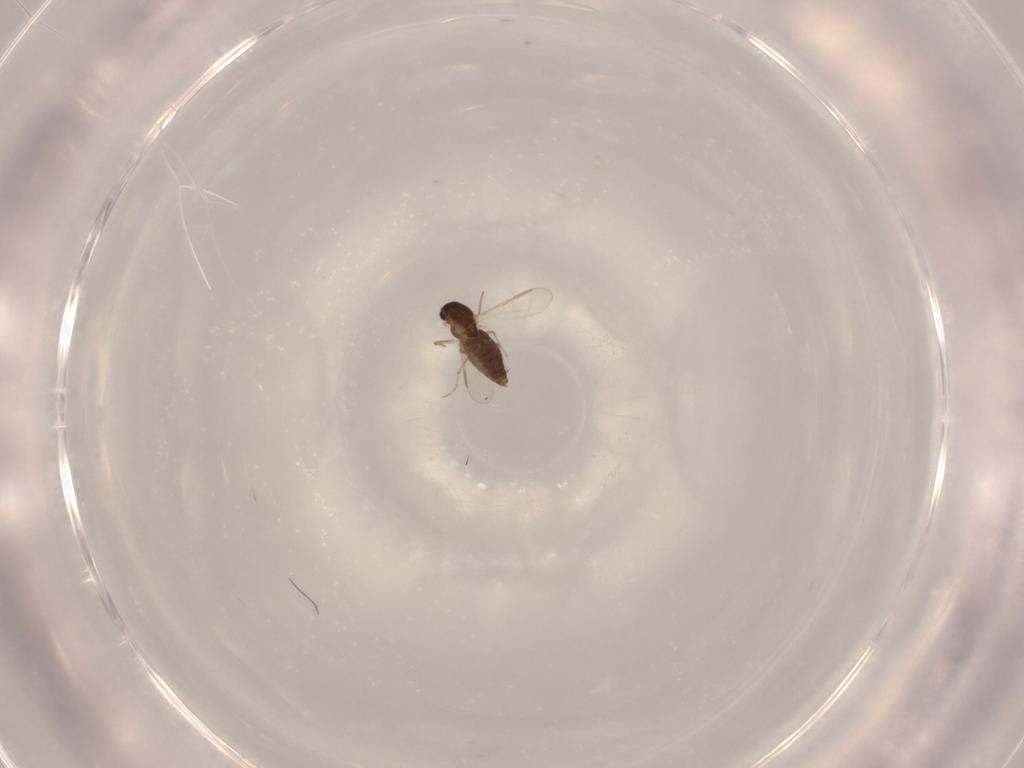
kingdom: Animalia
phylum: Arthropoda
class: Insecta
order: Diptera
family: Chironomidae
